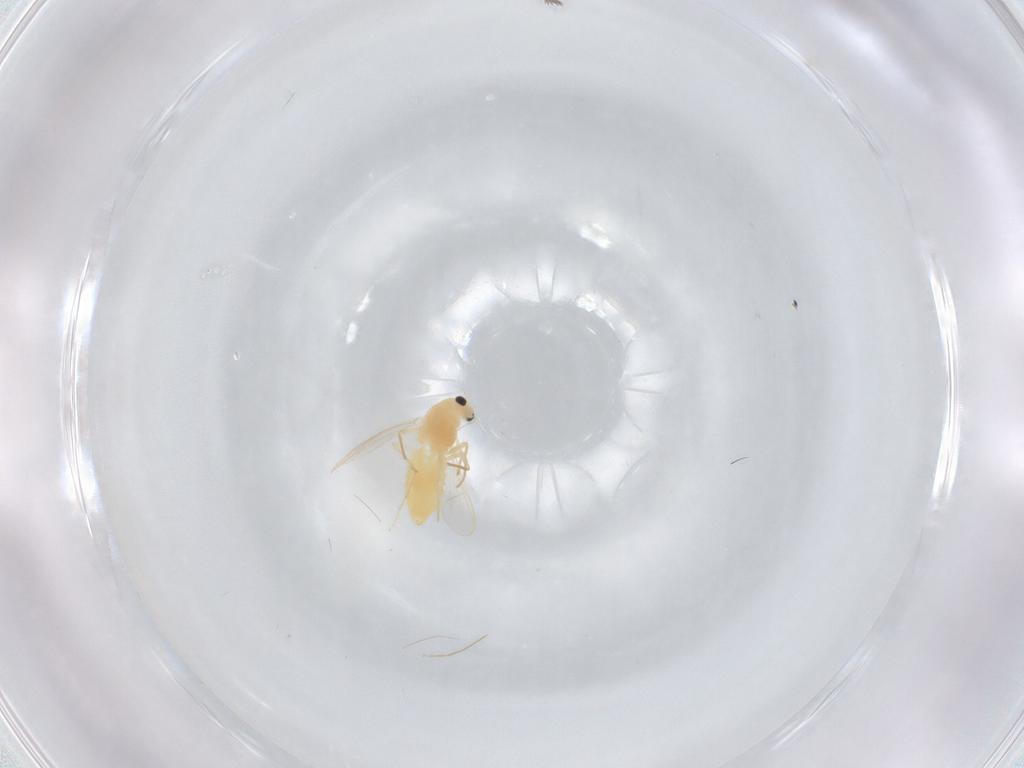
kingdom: Animalia
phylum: Arthropoda
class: Insecta
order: Diptera
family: Chironomidae
